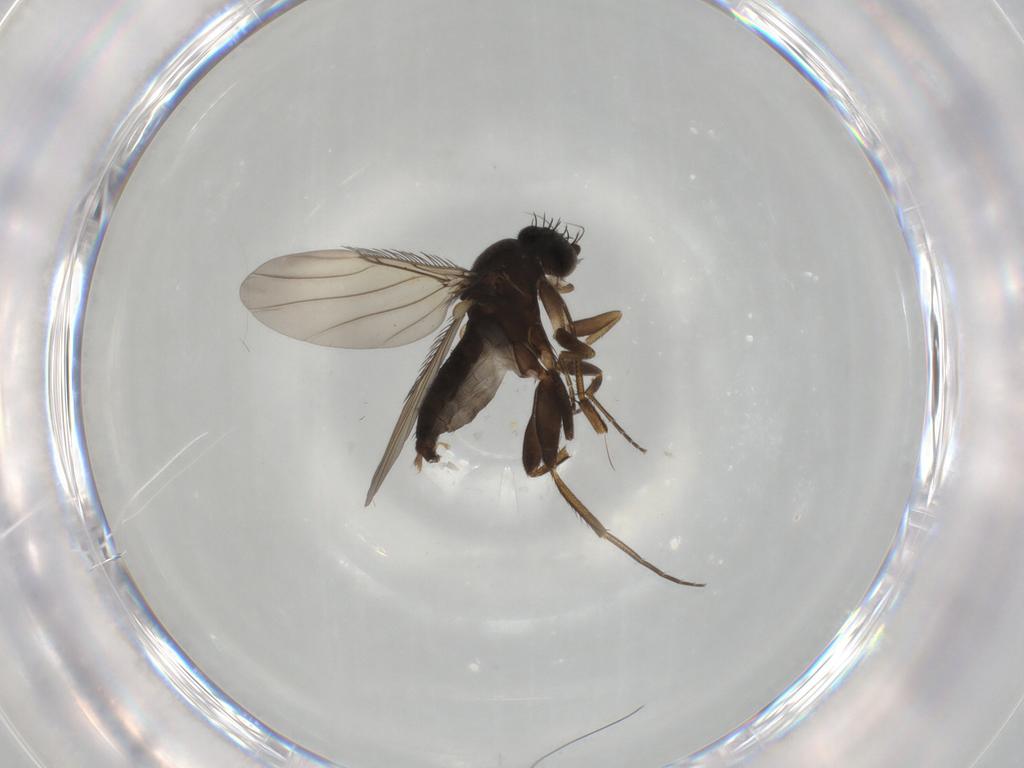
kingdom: Animalia
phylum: Arthropoda
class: Insecta
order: Diptera
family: Phoridae
